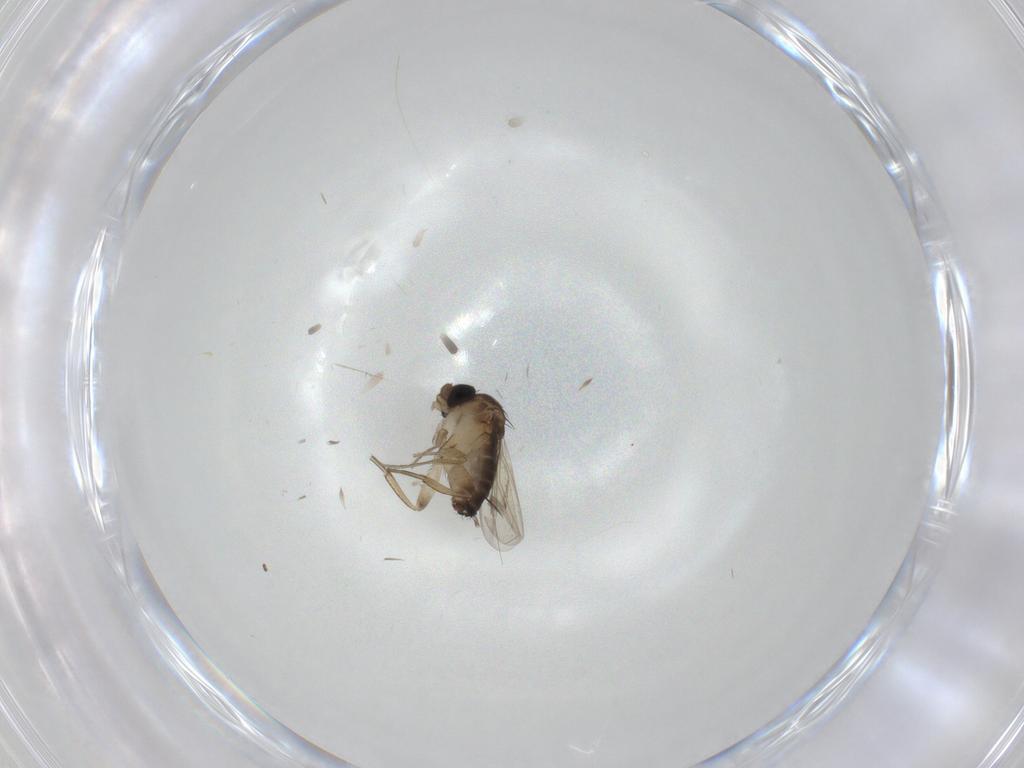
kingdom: Animalia
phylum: Arthropoda
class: Insecta
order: Diptera
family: Cecidomyiidae
